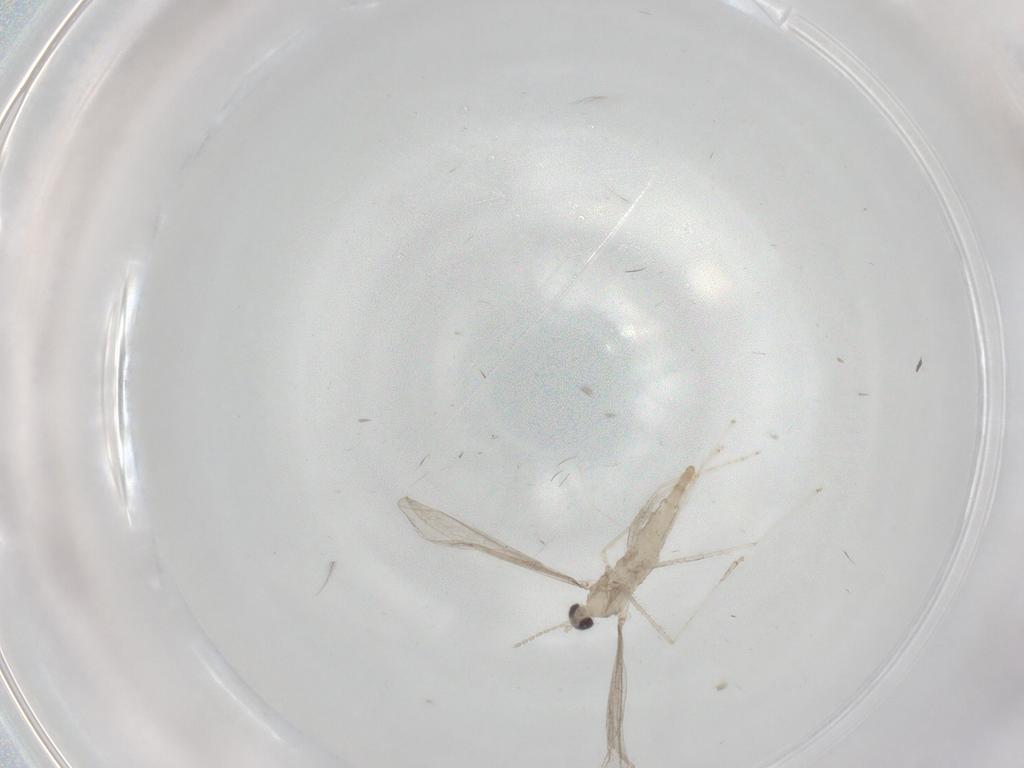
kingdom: Animalia
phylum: Arthropoda
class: Insecta
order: Diptera
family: Cecidomyiidae
